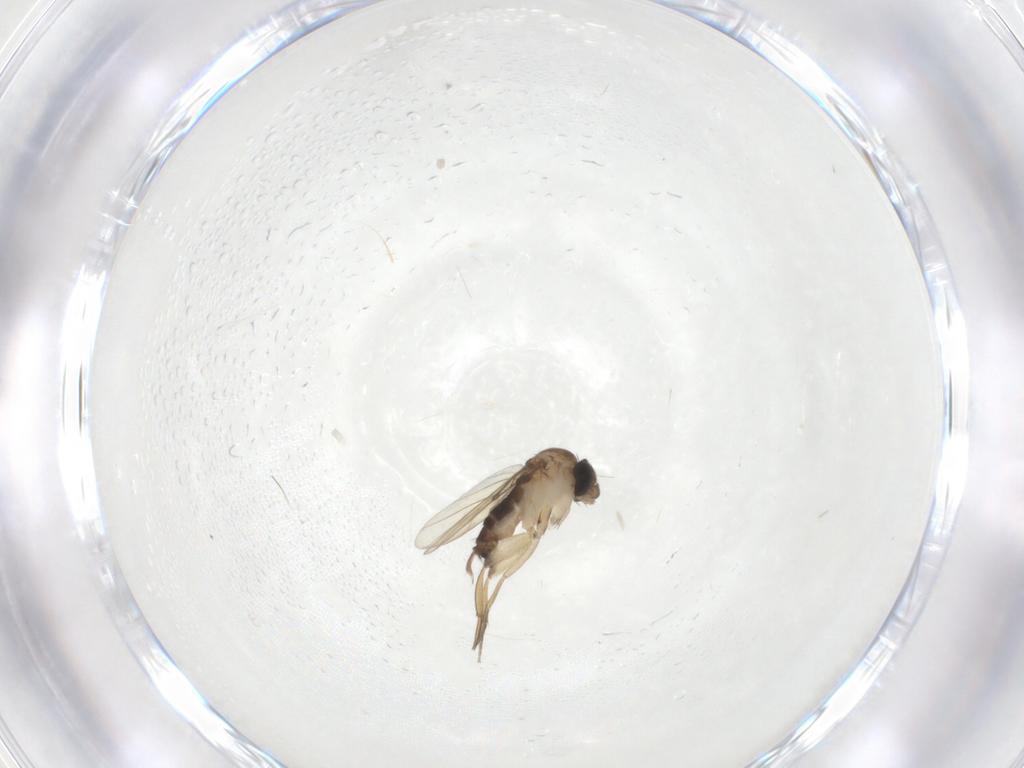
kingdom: Animalia
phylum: Arthropoda
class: Insecta
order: Diptera
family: Phoridae
